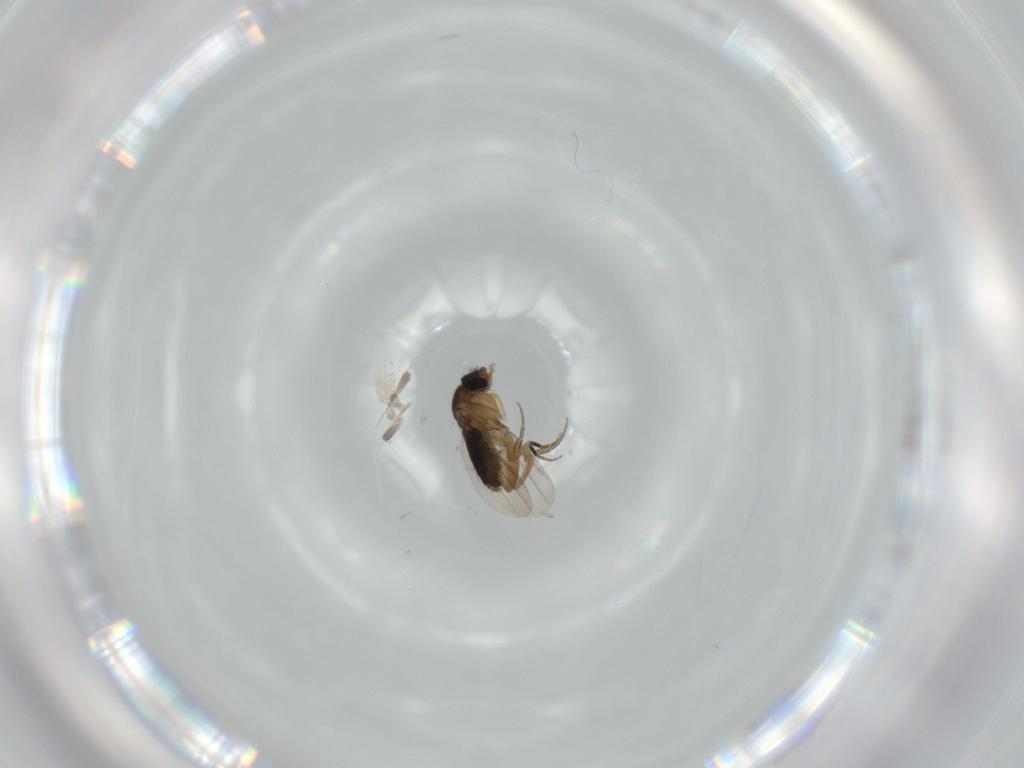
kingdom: Animalia
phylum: Arthropoda
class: Insecta
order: Diptera
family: Phoridae
